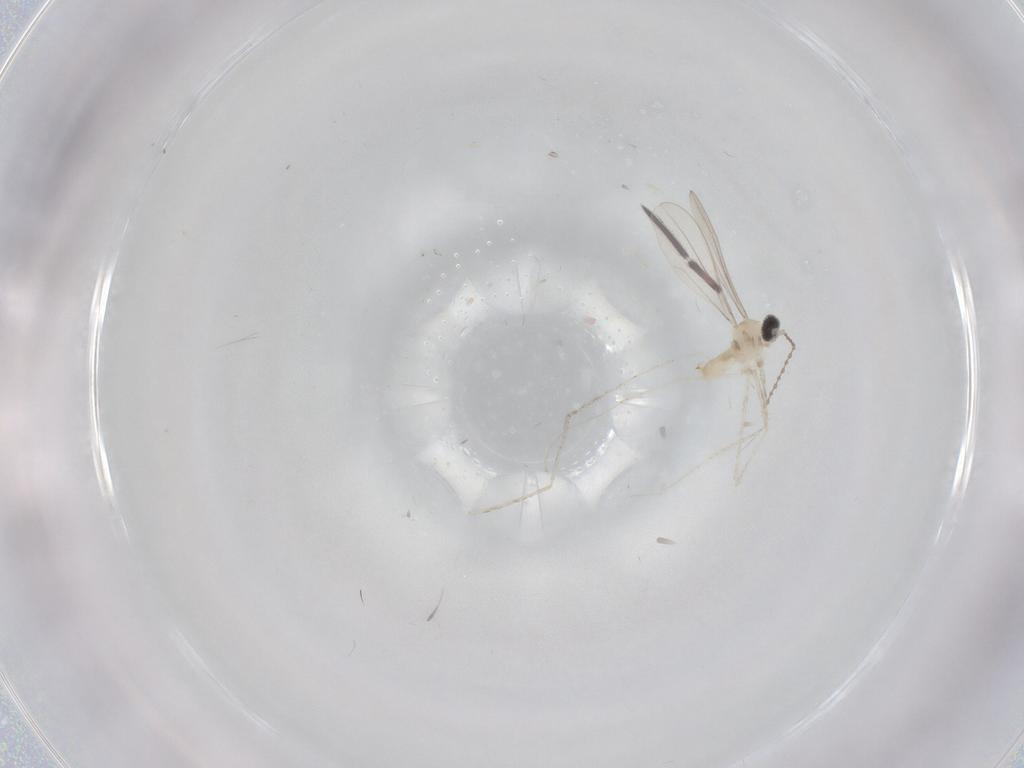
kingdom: Animalia
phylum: Arthropoda
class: Insecta
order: Diptera
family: Cecidomyiidae
